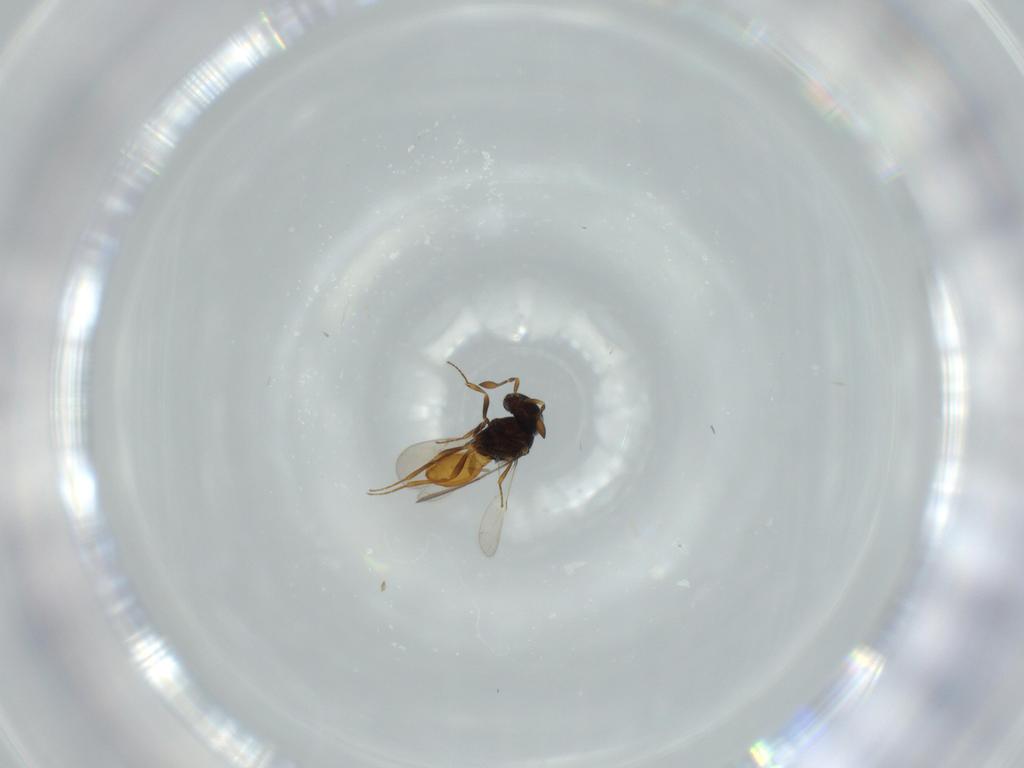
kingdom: Animalia
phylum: Arthropoda
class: Insecta
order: Hymenoptera
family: Scelionidae
